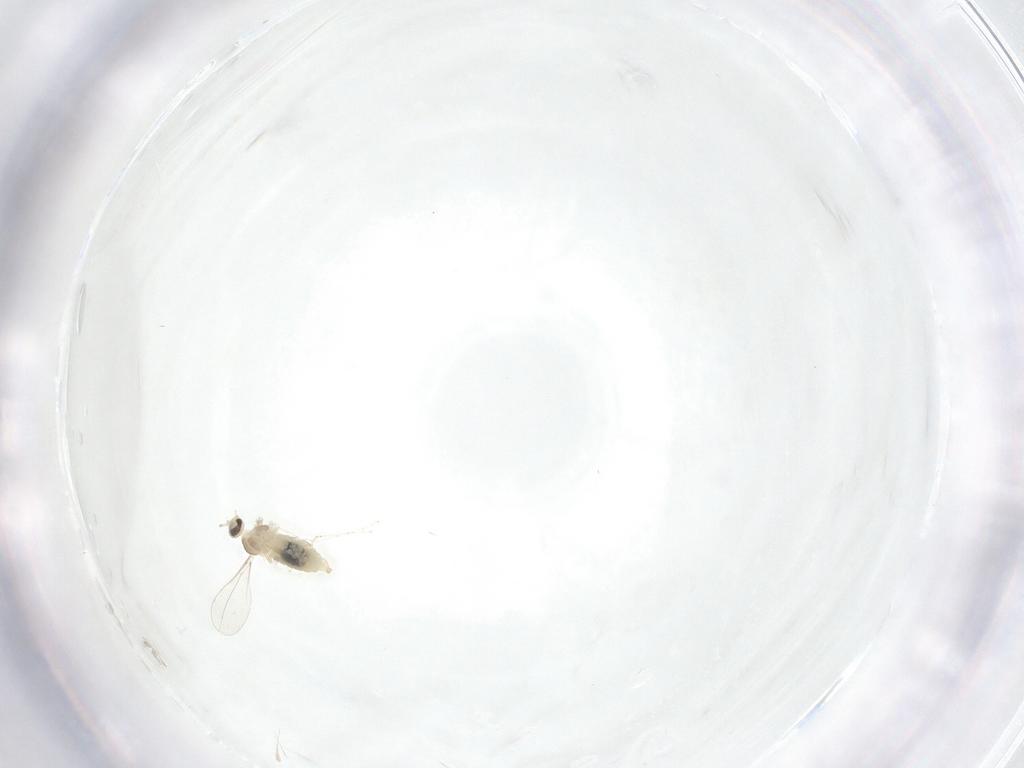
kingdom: Animalia
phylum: Arthropoda
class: Insecta
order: Diptera
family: Cecidomyiidae
